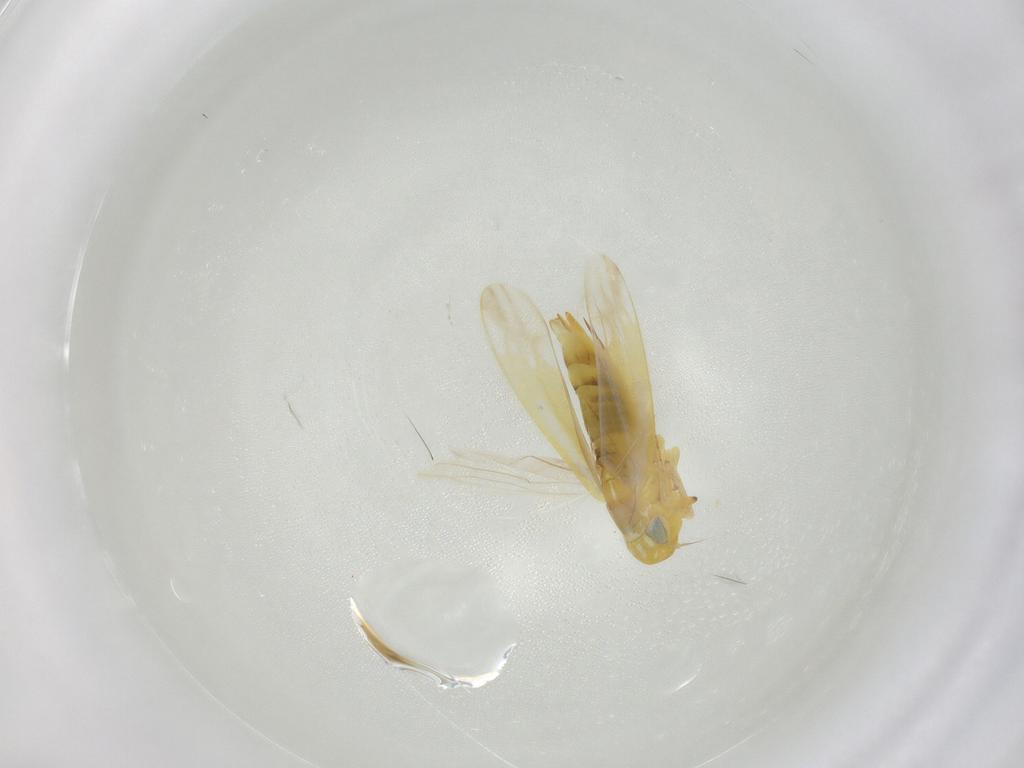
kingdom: Animalia
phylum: Arthropoda
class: Insecta
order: Hemiptera
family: Cicadellidae
